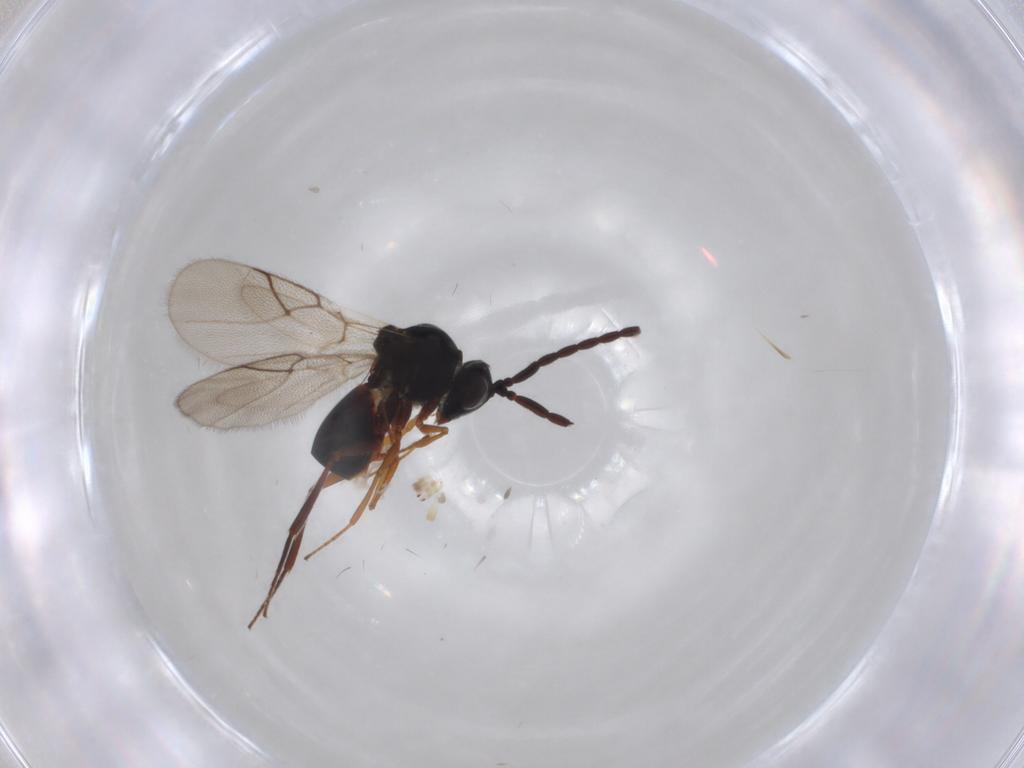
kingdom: Animalia
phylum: Arthropoda
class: Insecta
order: Hymenoptera
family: Figitidae
